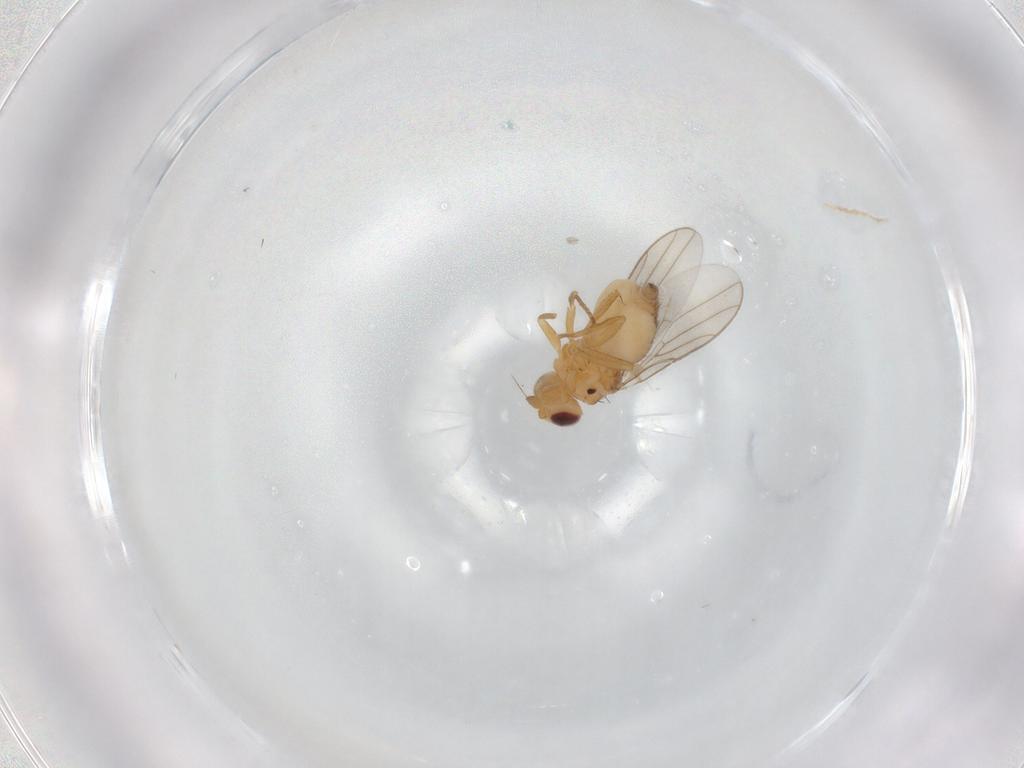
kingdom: Animalia
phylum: Arthropoda
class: Insecta
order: Diptera
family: Chloropidae
